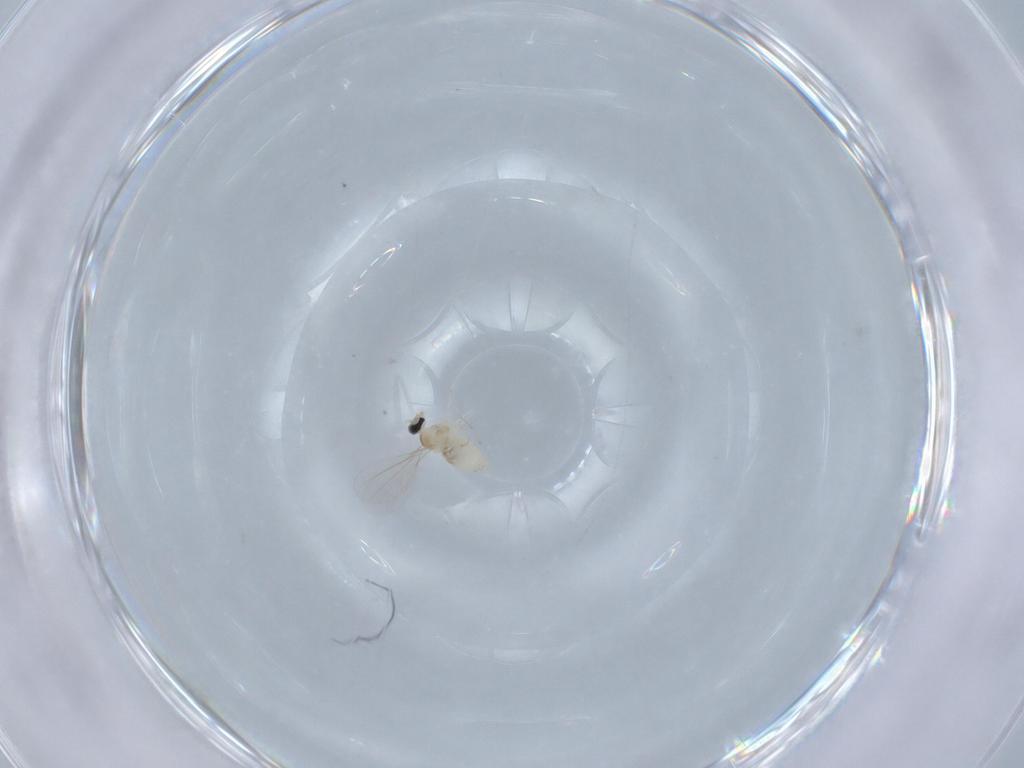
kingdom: Animalia
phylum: Arthropoda
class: Insecta
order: Diptera
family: Cecidomyiidae
